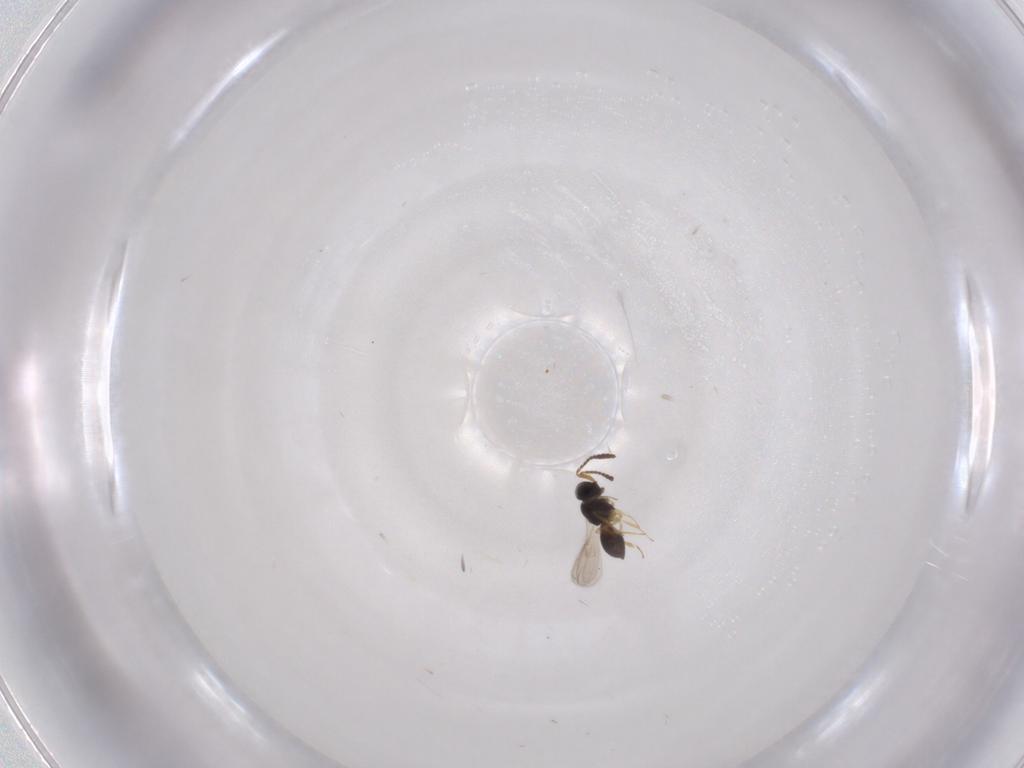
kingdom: Animalia
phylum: Arthropoda
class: Insecta
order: Hymenoptera
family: Scelionidae
